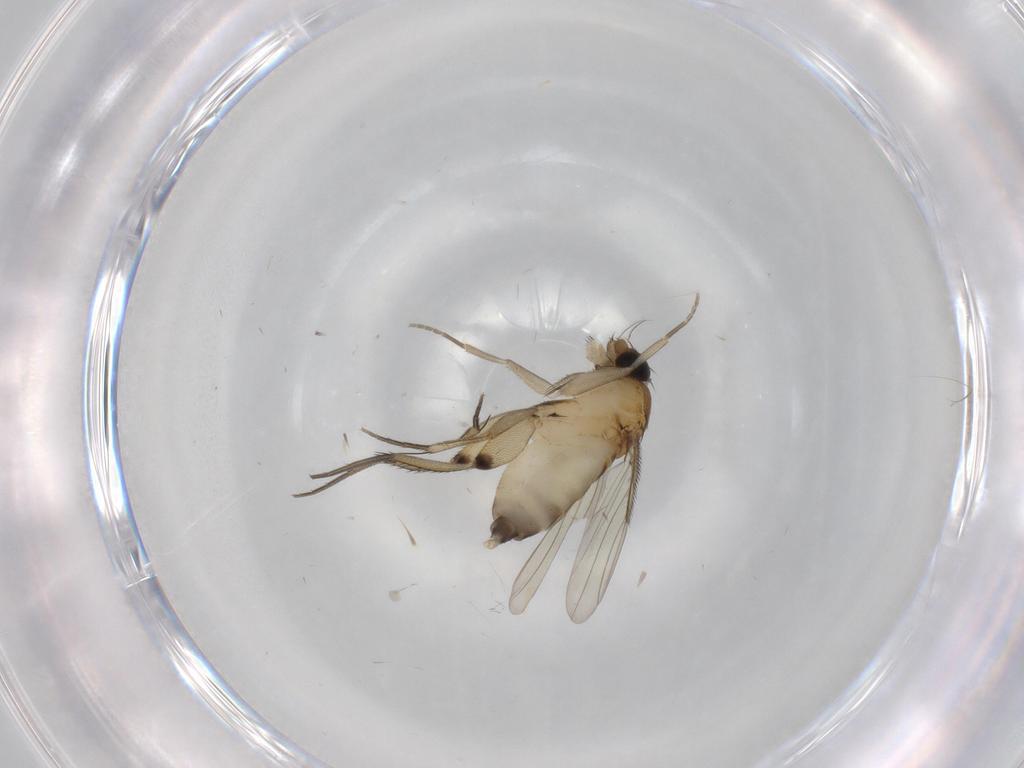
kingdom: Animalia
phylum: Arthropoda
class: Insecta
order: Diptera
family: Phoridae
